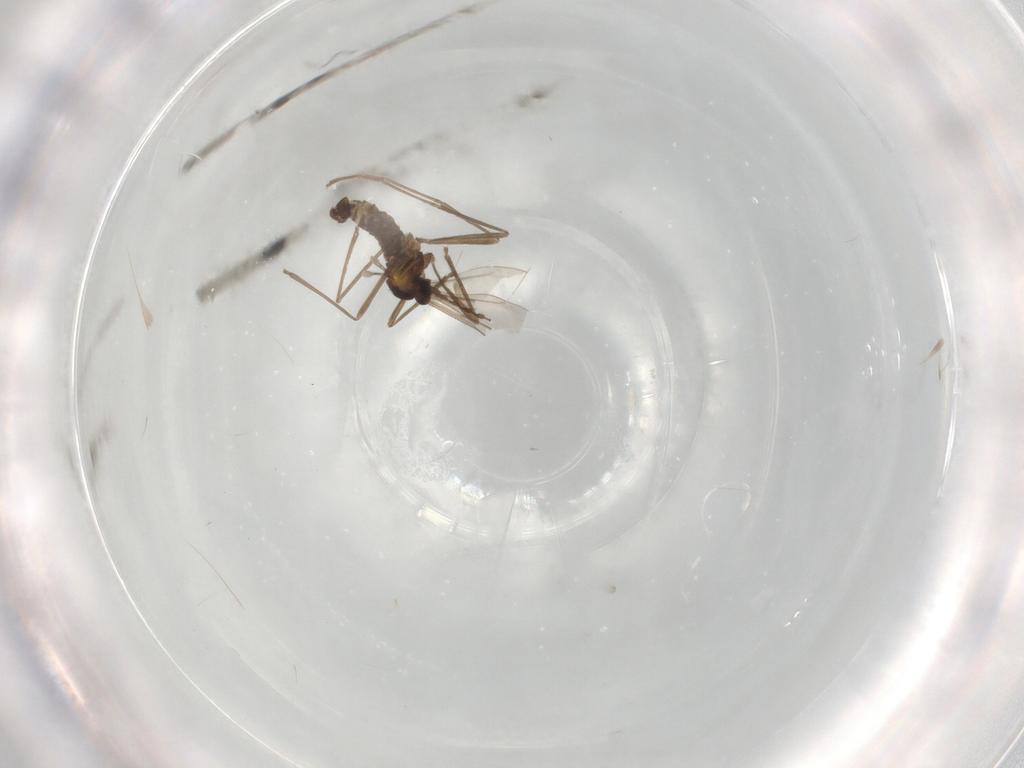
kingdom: Animalia
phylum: Arthropoda
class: Insecta
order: Diptera
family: Cecidomyiidae
